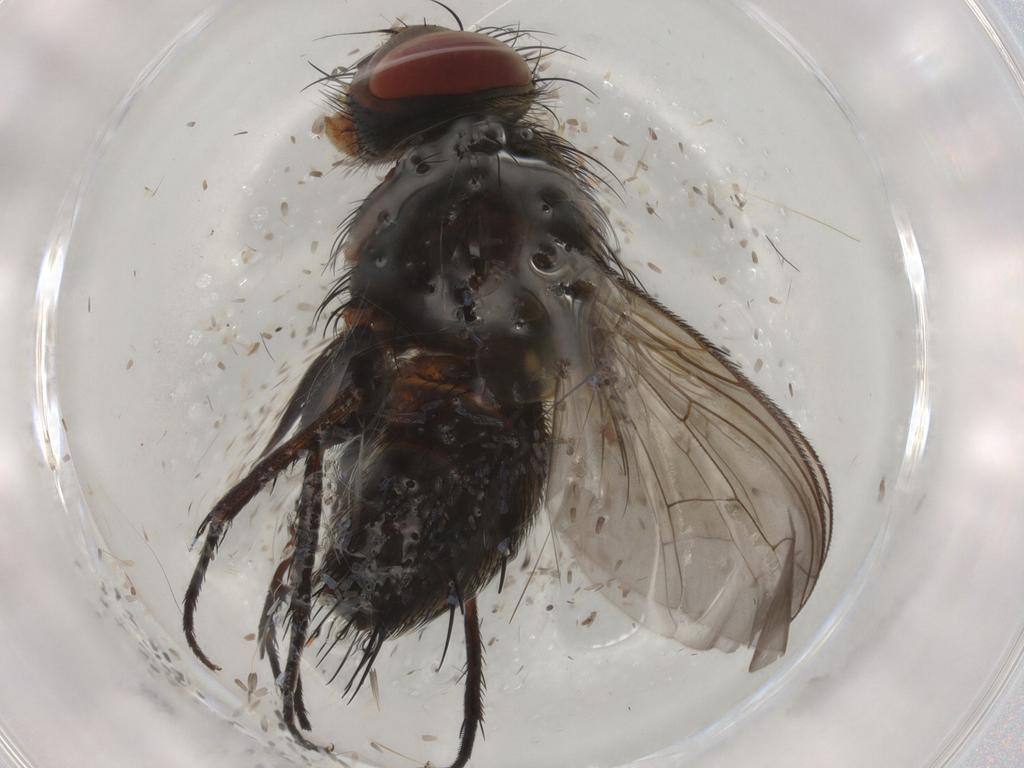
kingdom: Animalia
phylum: Arthropoda
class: Insecta
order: Diptera
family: Sarcophagidae
